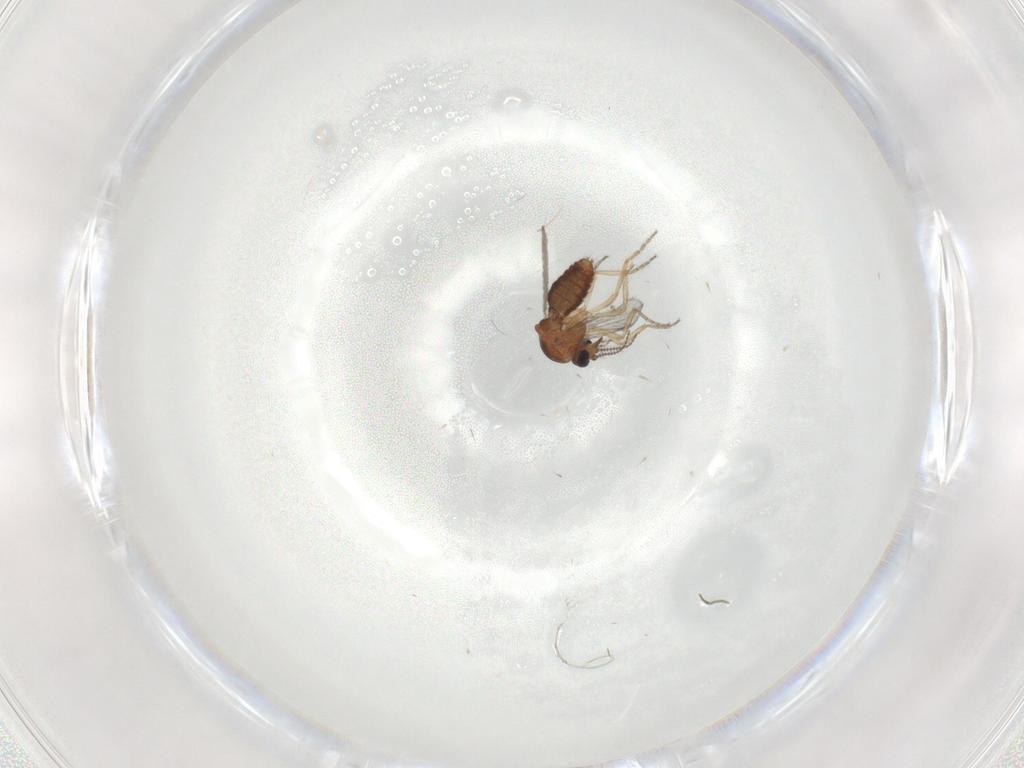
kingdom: Animalia
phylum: Arthropoda
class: Insecta
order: Diptera
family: Ceratopogonidae
